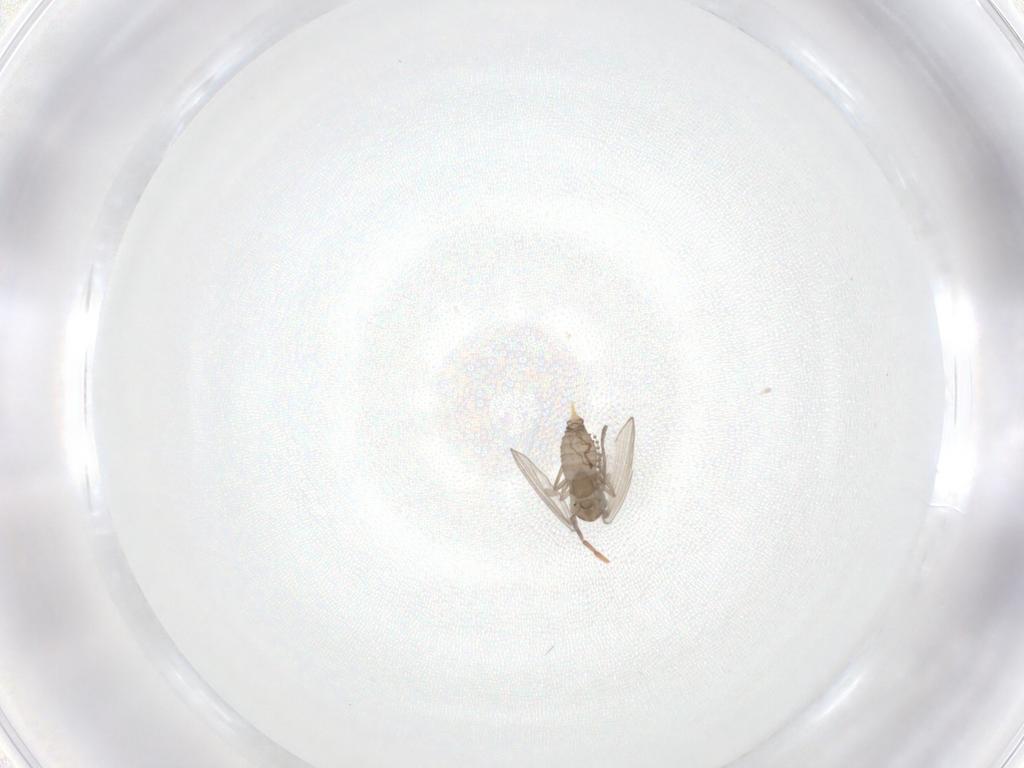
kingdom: Animalia
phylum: Arthropoda
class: Insecta
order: Diptera
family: Psychodidae
